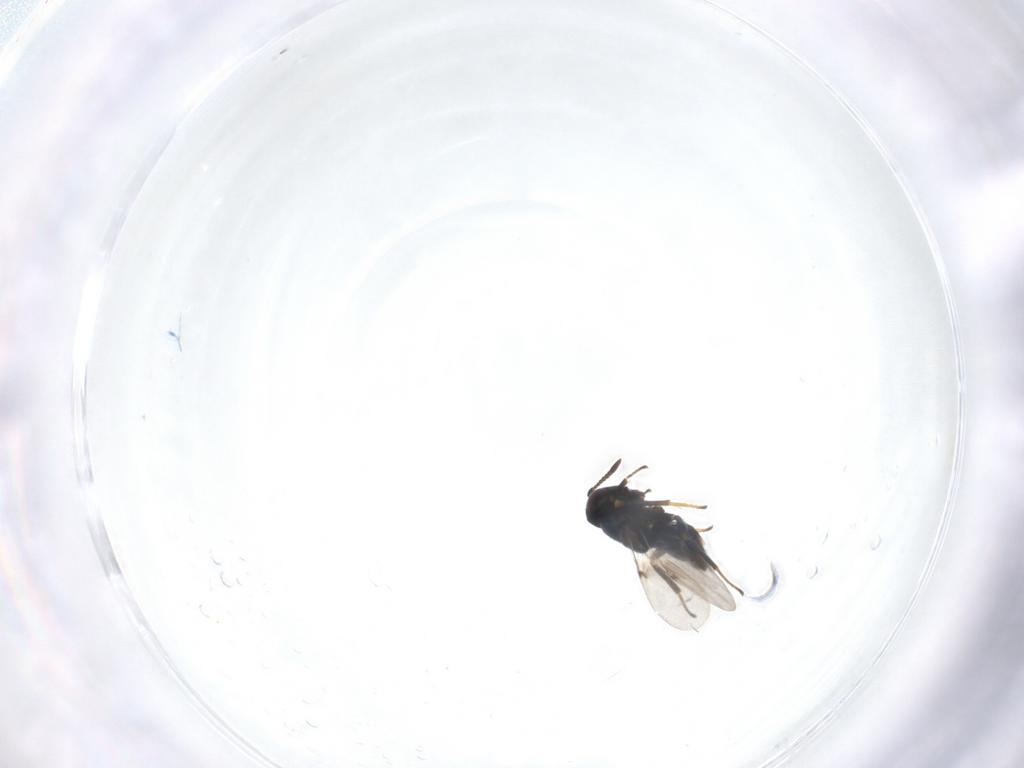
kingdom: Animalia
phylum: Arthropoda
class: Insecta
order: Hymenoptera
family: Encyrtidae
